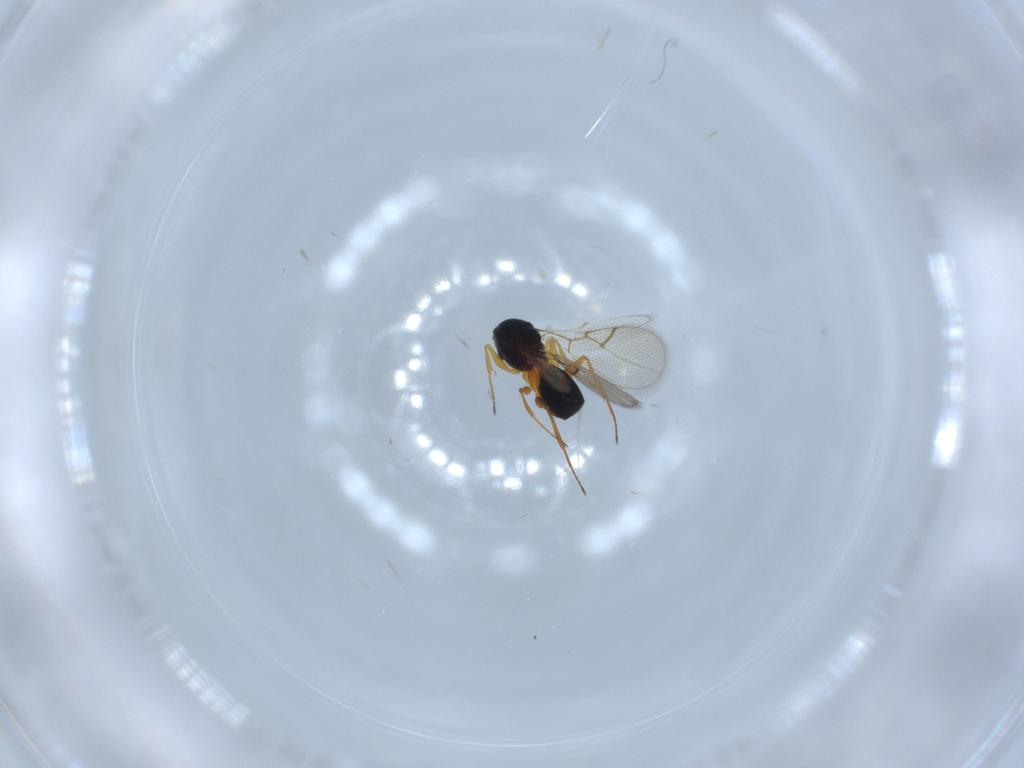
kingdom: Animalia
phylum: Arthropoda
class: Insecta
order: Hymenoptera
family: Figitidae
